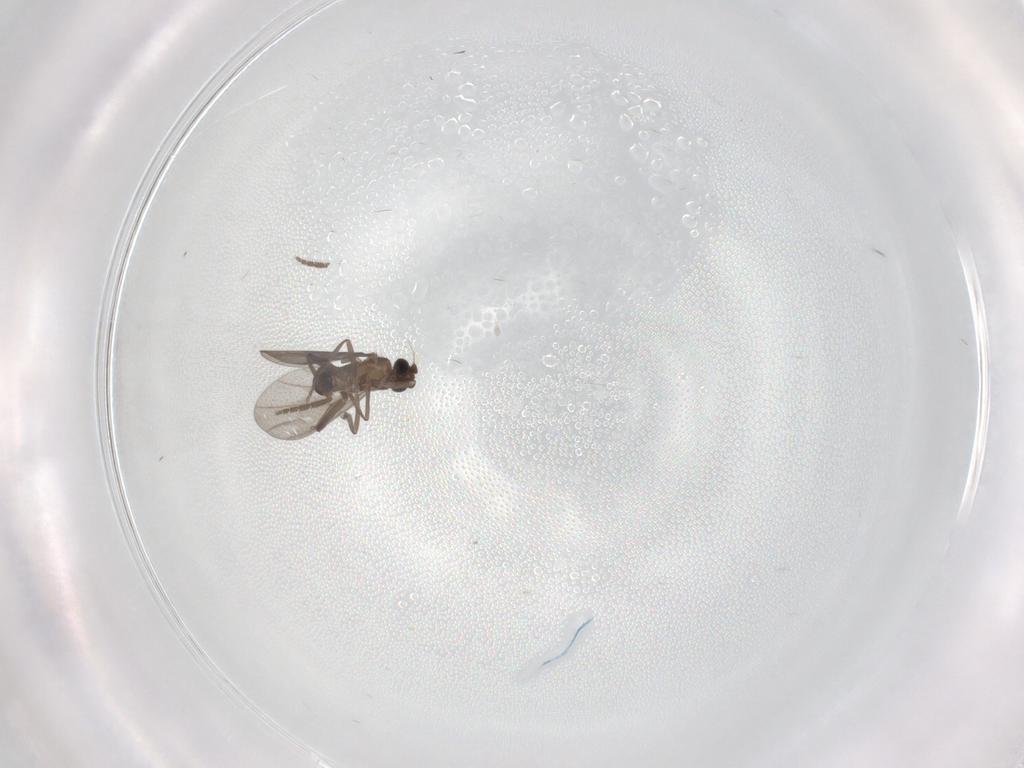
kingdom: Animalia
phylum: Arthropoda
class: Insecta
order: Diptera
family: Phoridae
